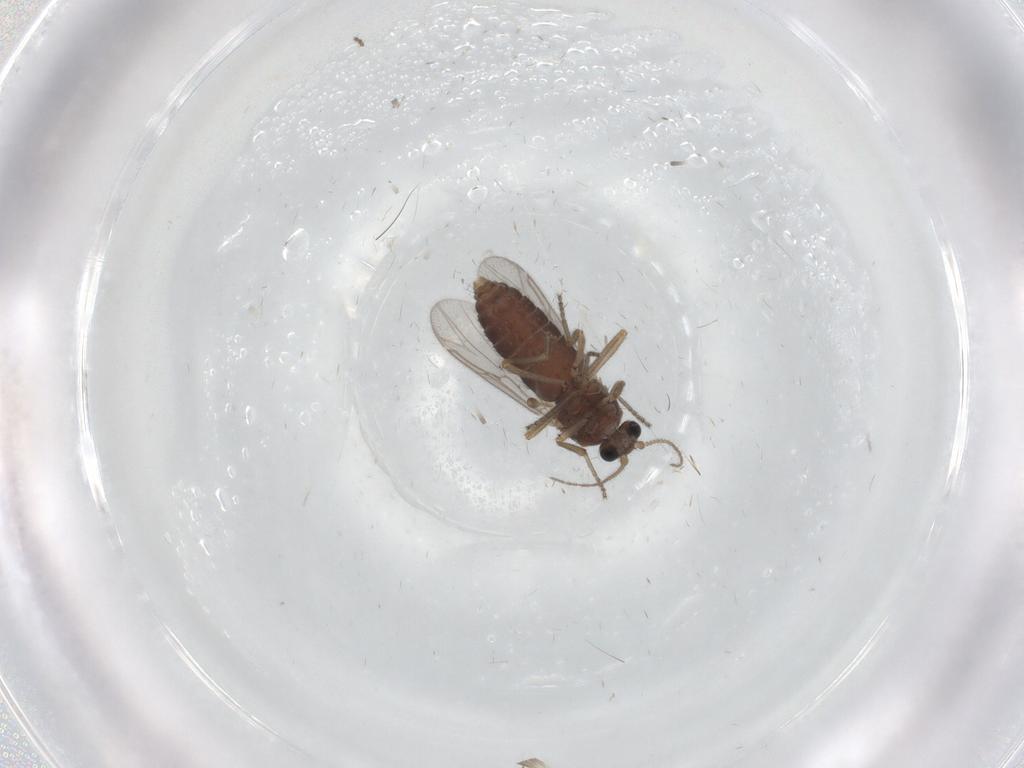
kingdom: Animalia
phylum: Arthropoda
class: Insecta
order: Diptera
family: Ceratopogonidae
